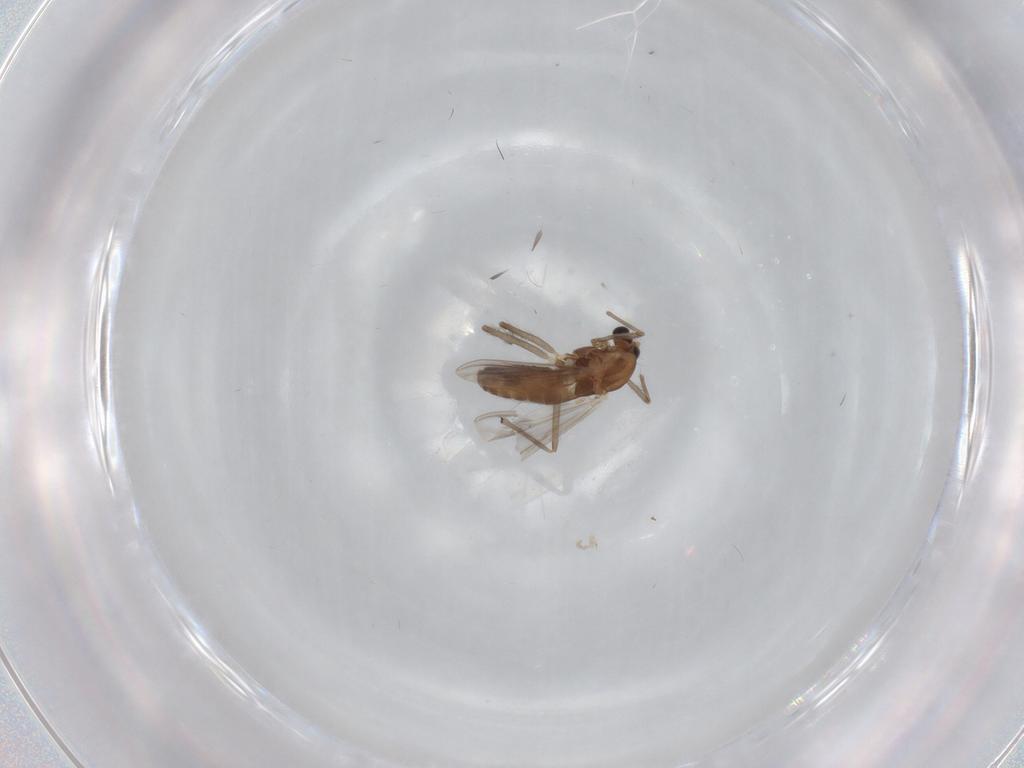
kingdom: Animalia
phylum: Arthropoda
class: Insecta
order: Diptera
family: Chironomidae
